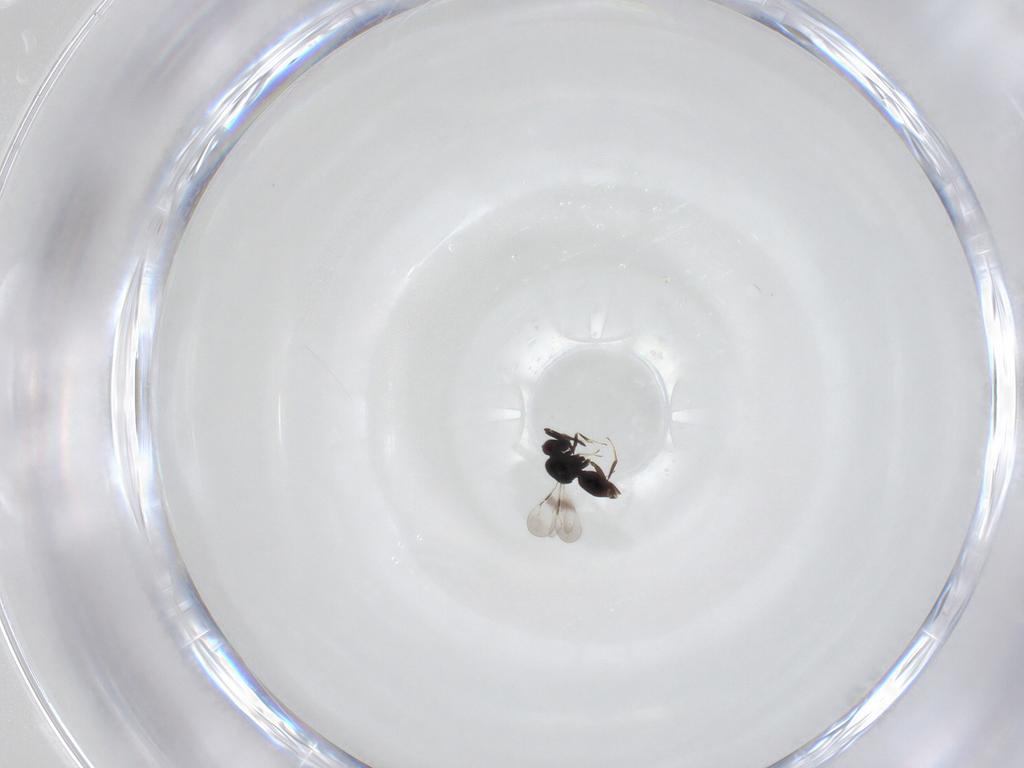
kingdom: Animalia
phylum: Arthropoda
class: Insecta
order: Hymenoptera
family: Ceraphronidae
